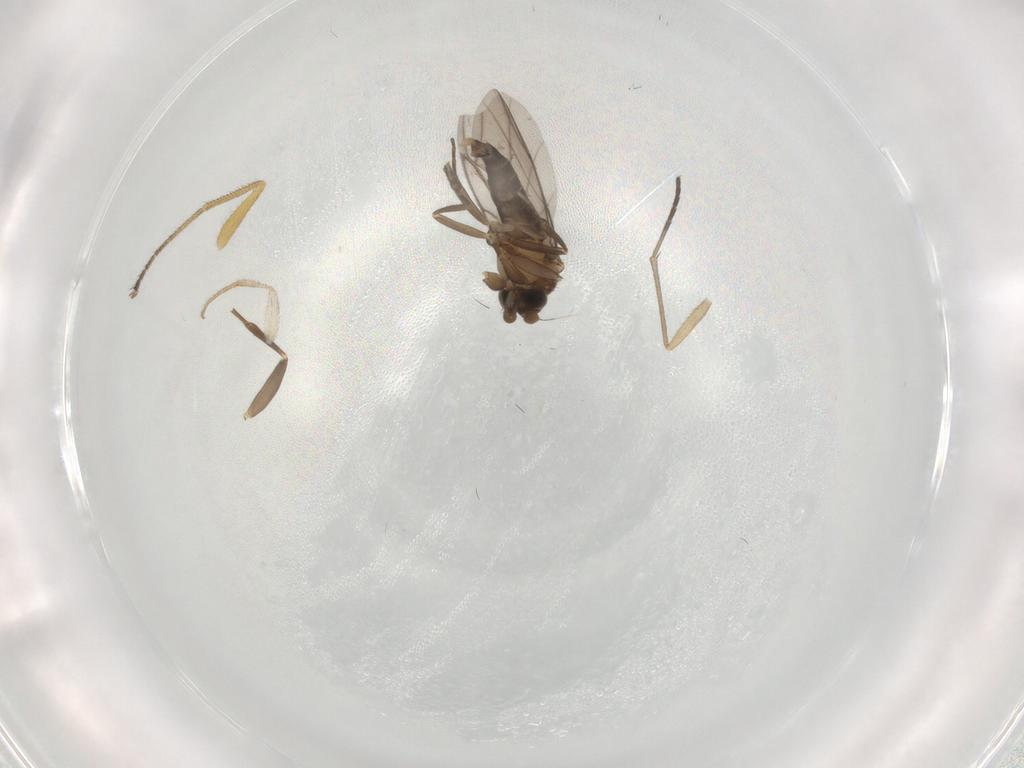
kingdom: Animalia
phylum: Arthropoda
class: Insecta
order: Diptera
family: Dolichopodidae
